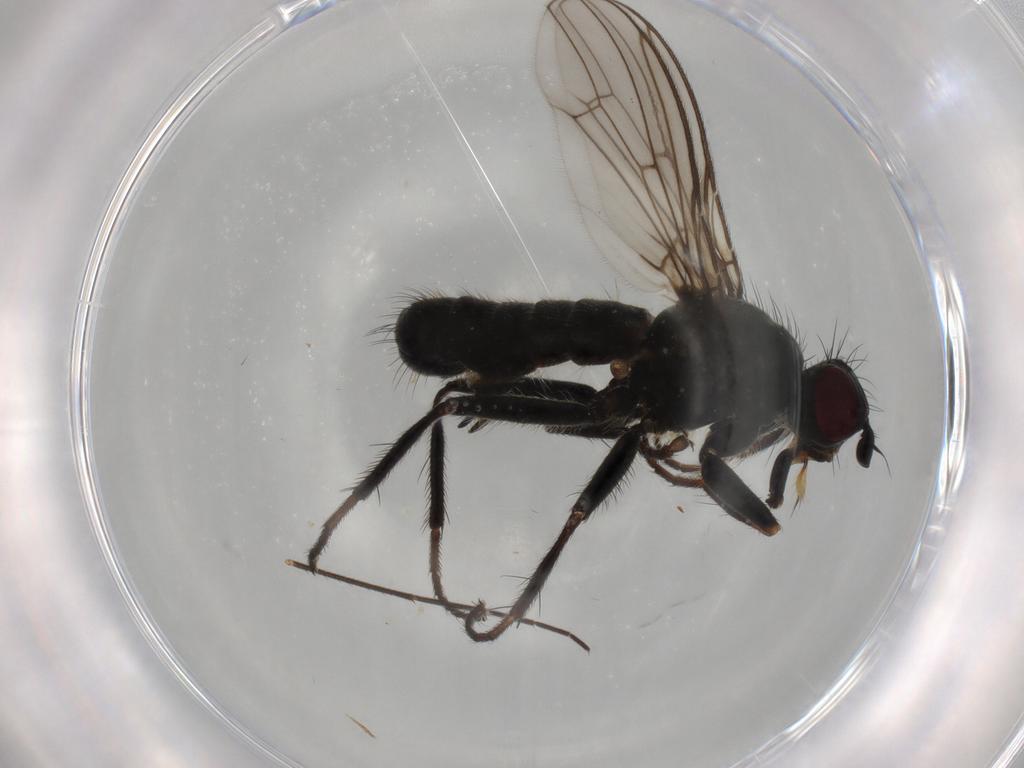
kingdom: Animalia
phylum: Arthropoda
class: Insecta
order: Diptera
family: Scathophagidae
